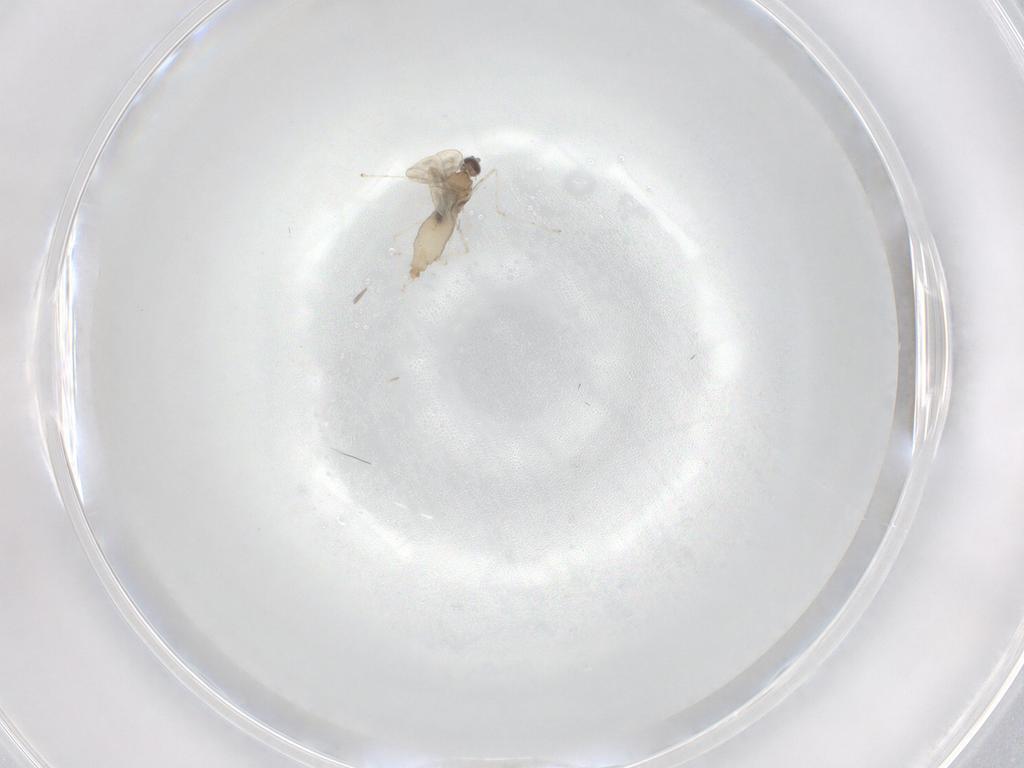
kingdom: Animalia
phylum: Arthropoda
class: Insecta
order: Diptera
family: Cecidomyiidae
